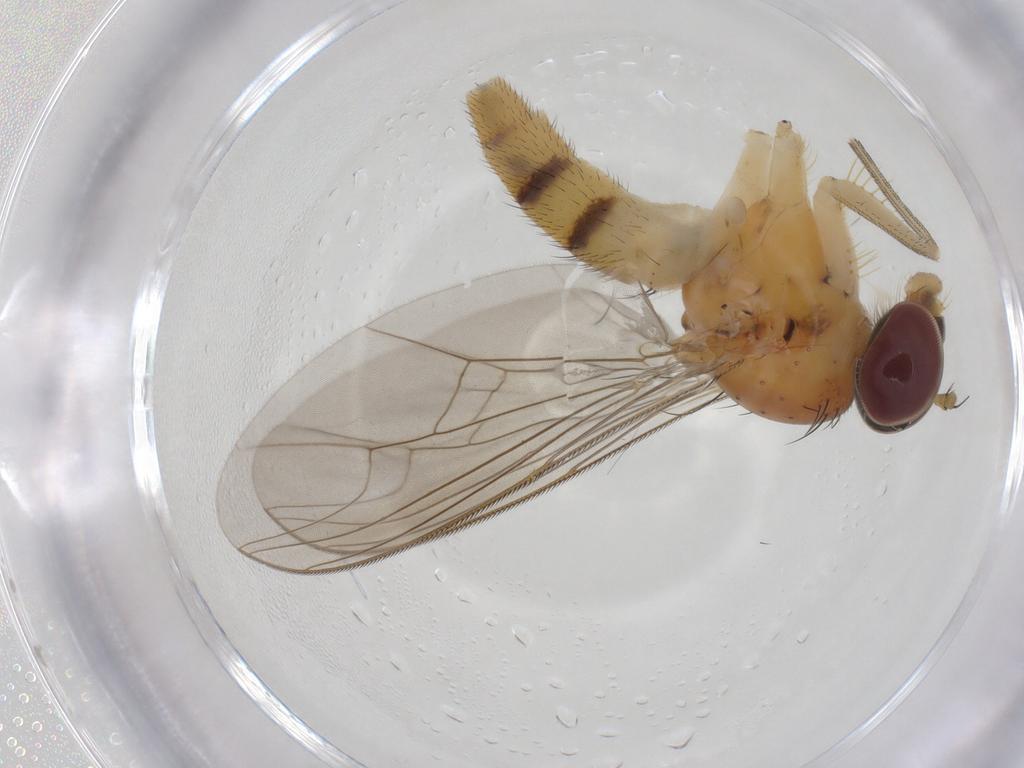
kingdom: Animalia
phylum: Arthropoda
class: Insecta
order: Diptera
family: Dolichopodidae
